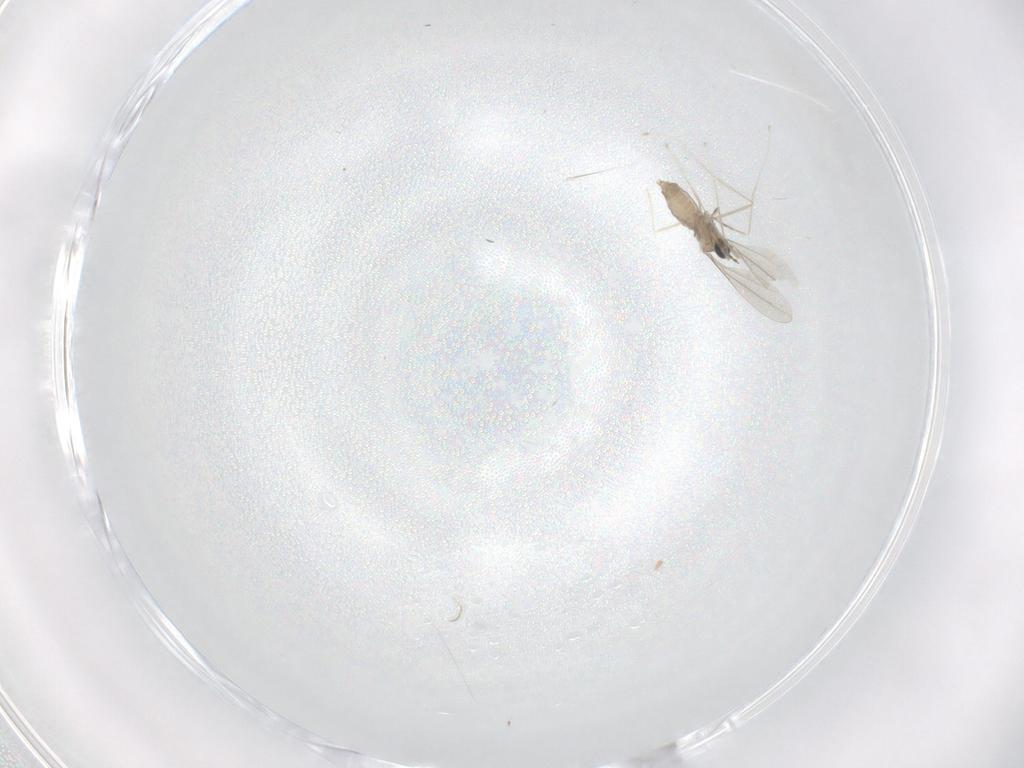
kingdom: Animalia
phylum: Arthropoda
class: Insecta
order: Diptera
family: Cecidomyiidae
